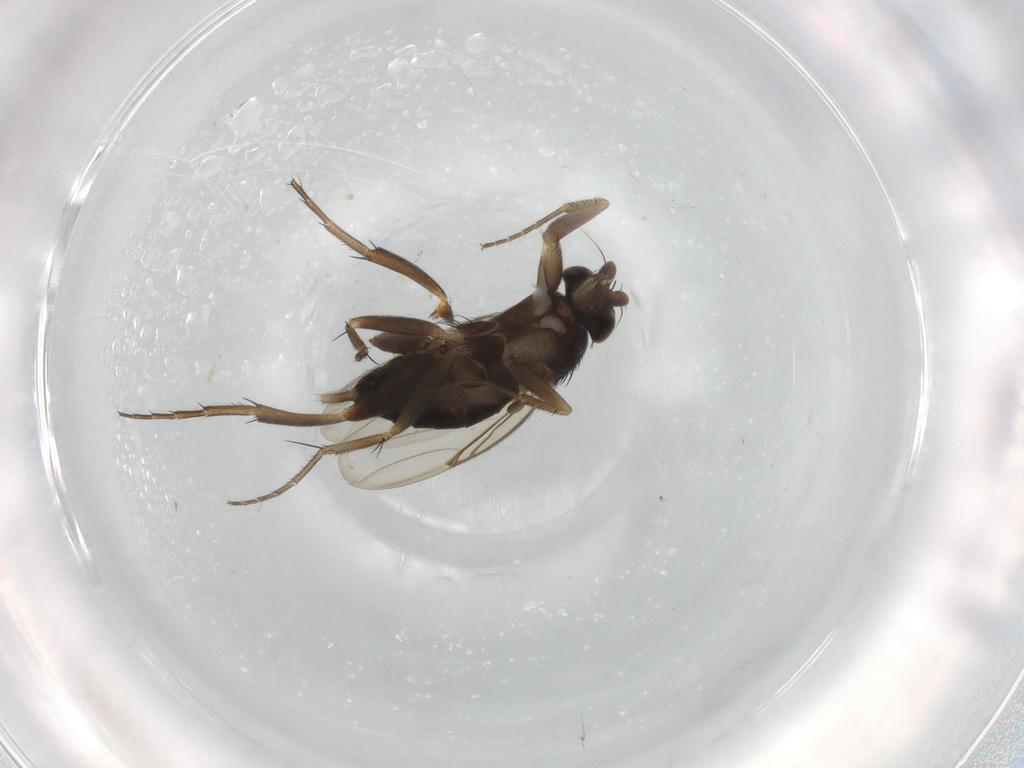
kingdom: Animalia
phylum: Arthropoda
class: Insecta
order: Diptera
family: Phoridae
